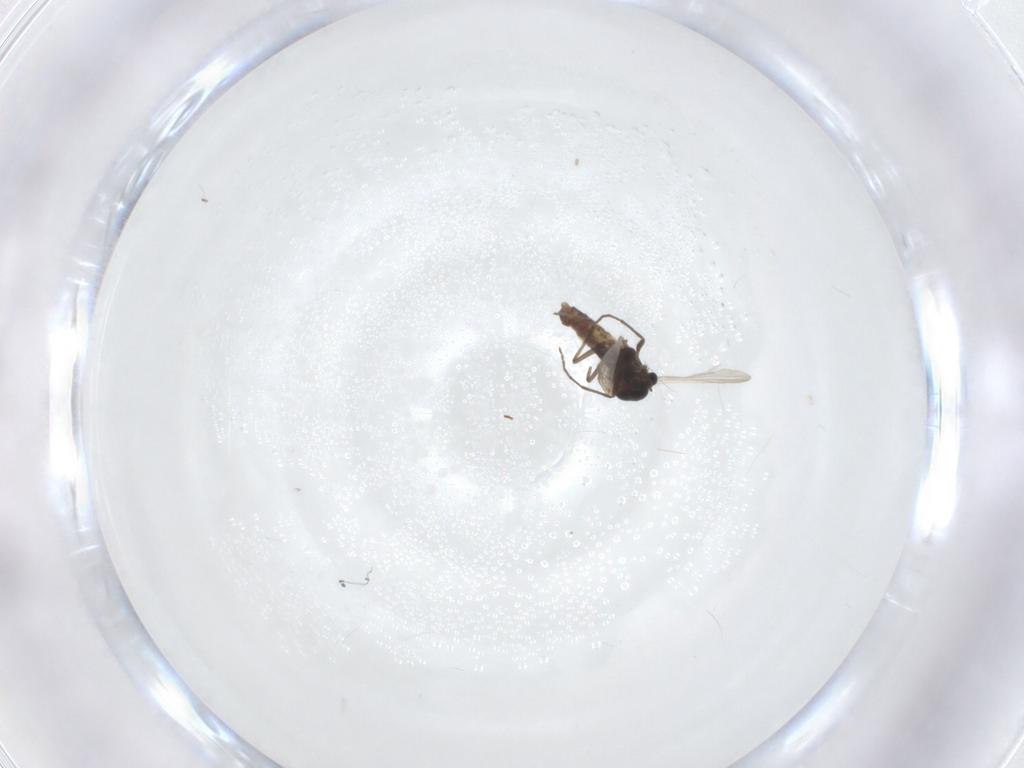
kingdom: Animalia
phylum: Arthropoda
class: Insecta
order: Diptera
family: Chironomidae
